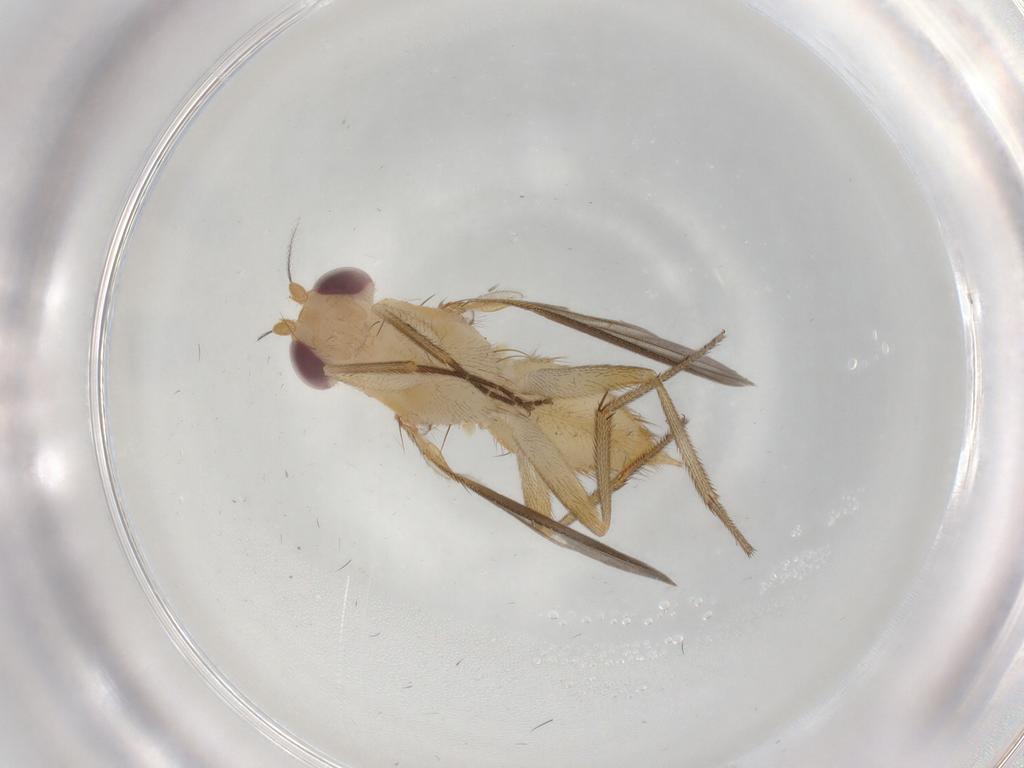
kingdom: Animalia
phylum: Arthropoda
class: Insecta
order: Diptera
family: Clusiidae
